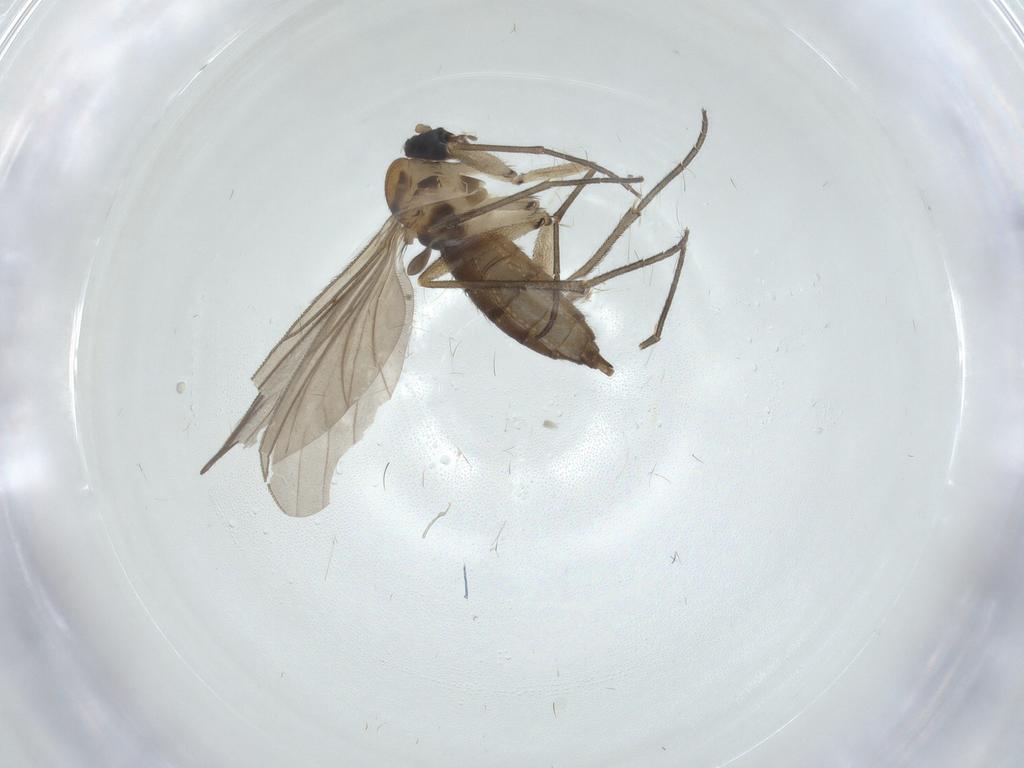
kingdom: Animalia
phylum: Arthropoda
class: Insecta
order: Diptera
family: Sciaridae
